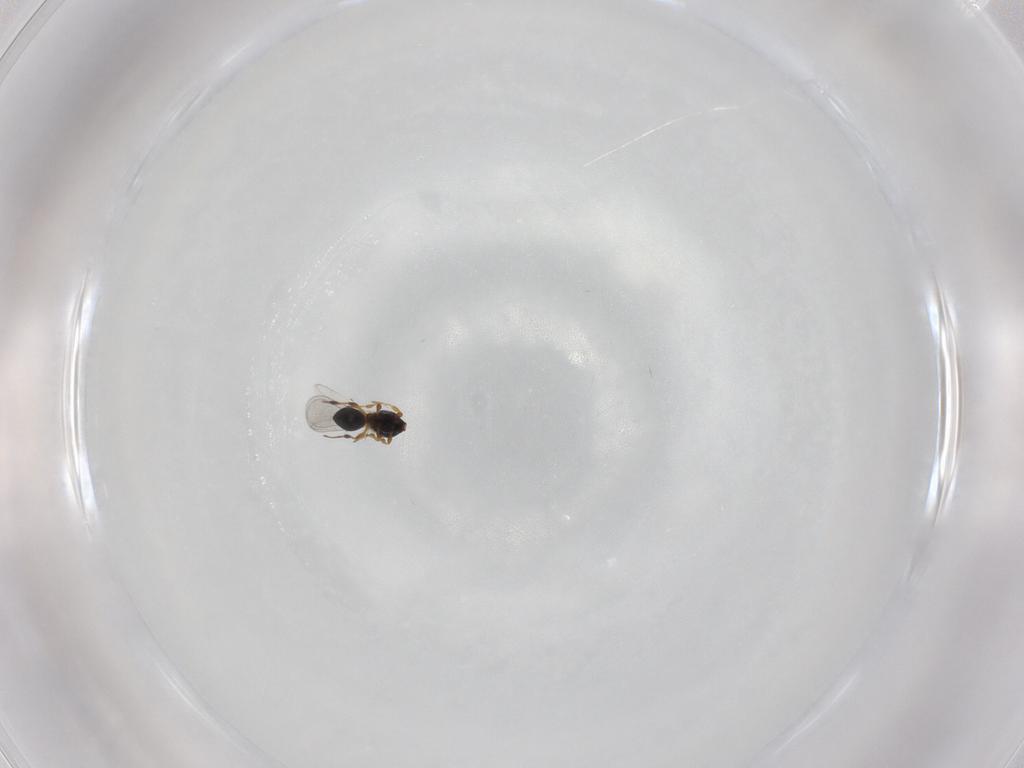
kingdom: Animalia
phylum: Arthropoda
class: Insecta
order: Hymenoptera
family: Platygastridae
